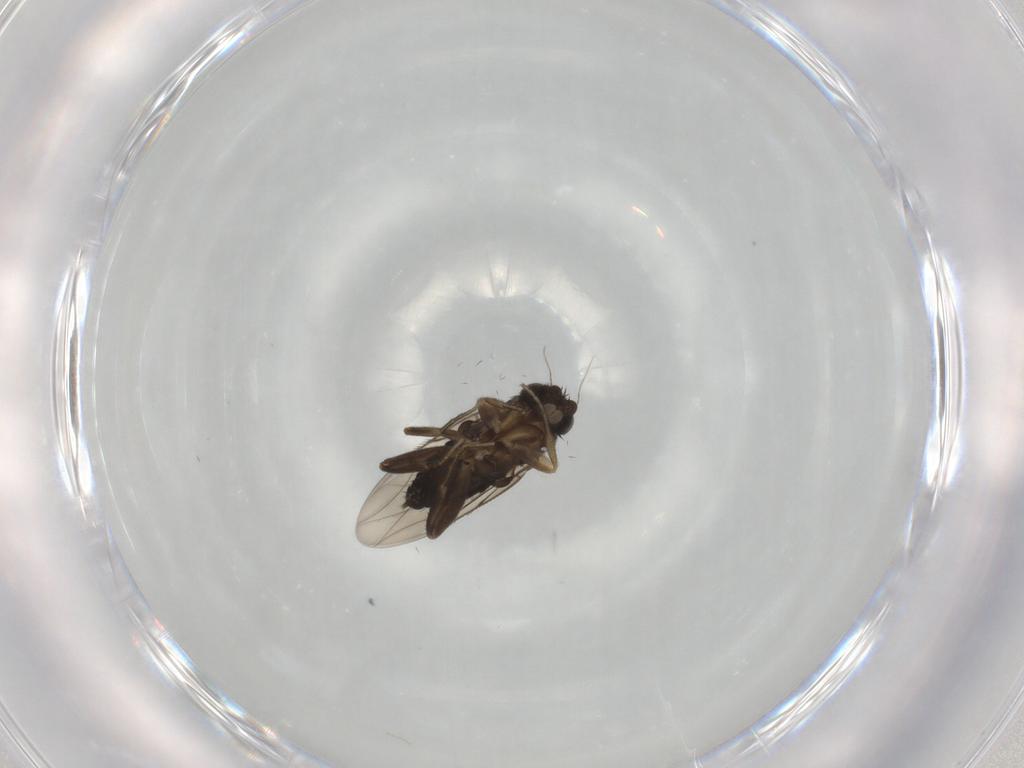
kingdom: Animalia
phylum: Arthropoda
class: Insecta
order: Diptera
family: Phoridae
